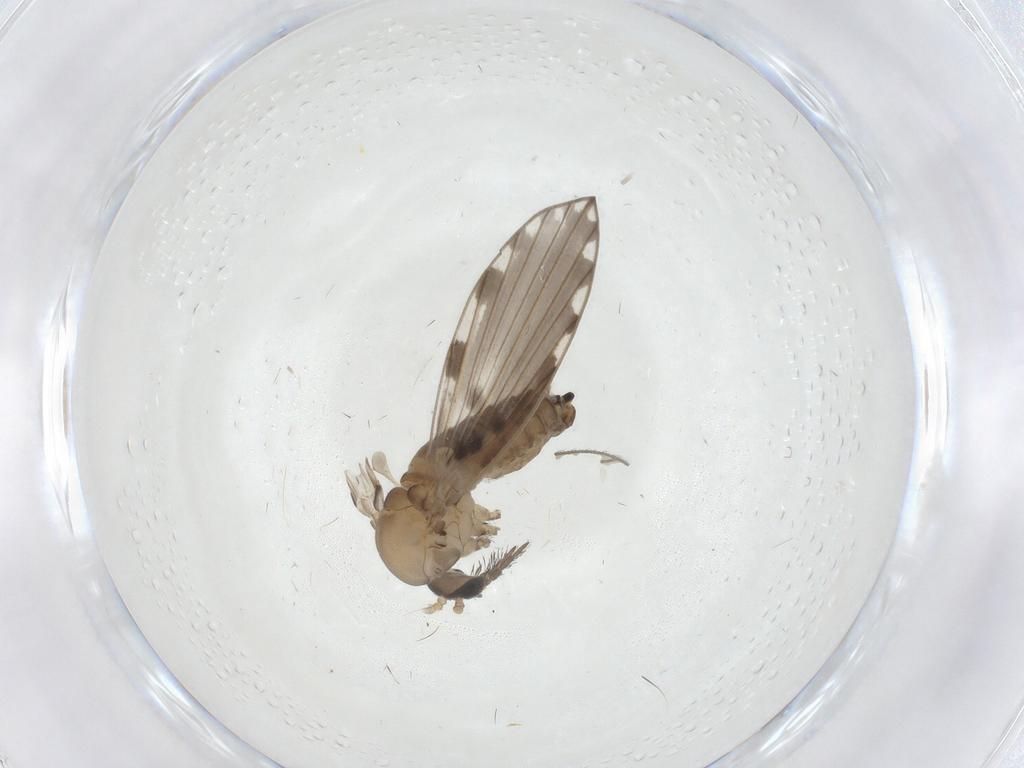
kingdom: Animalia
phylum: Arthropoda
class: Insecta
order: Diptera
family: Psychodidae
